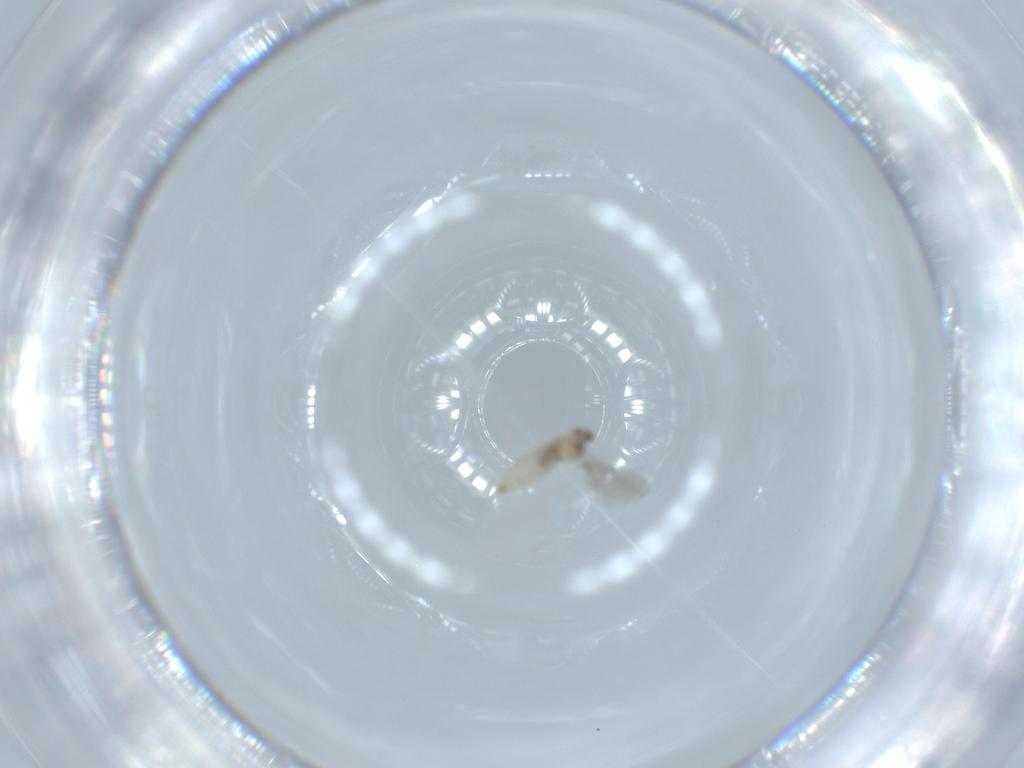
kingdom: Animalia
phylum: Arthropoda
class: Insecta
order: Diptera
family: Cecidomyiidae
